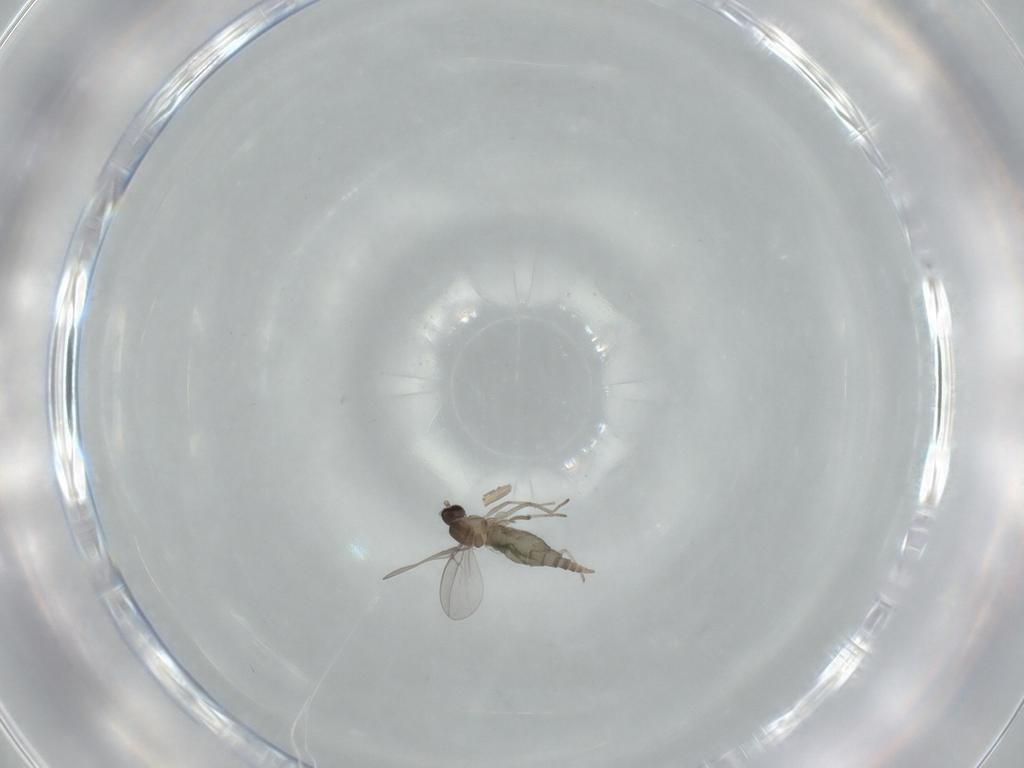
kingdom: Animalia
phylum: Arthropoda
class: Insecta
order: Diptera
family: Cecidomyiidae
